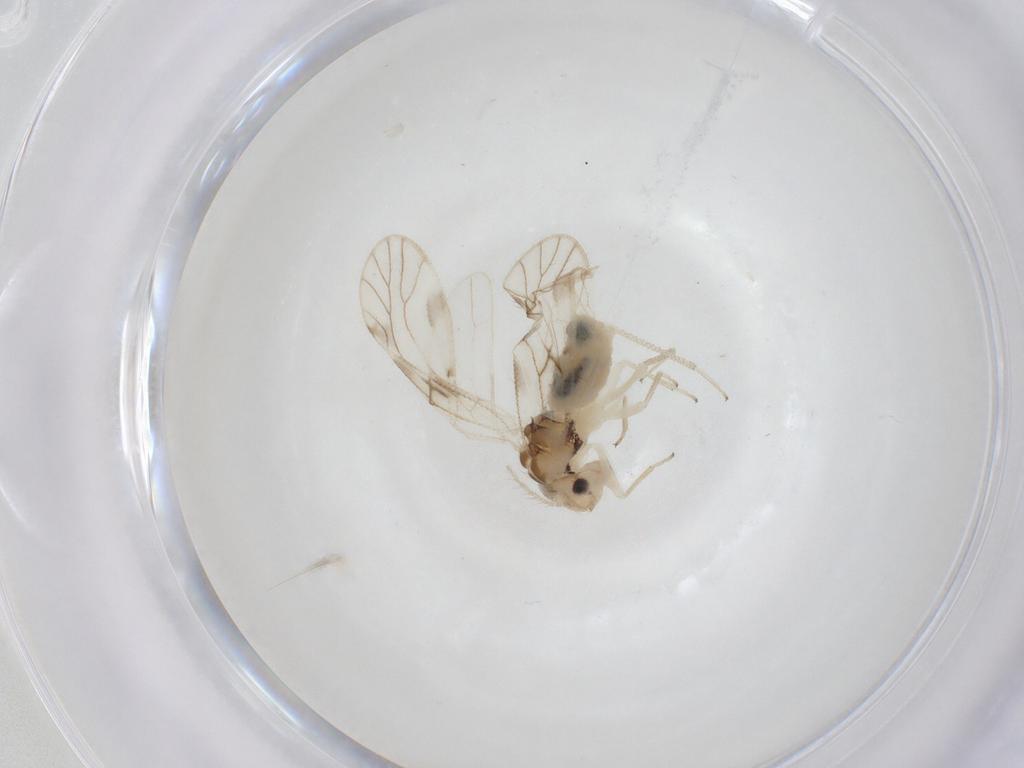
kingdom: Animalia
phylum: Arthropoda
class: Insecta
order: Psocodea
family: Caeciliusidae
